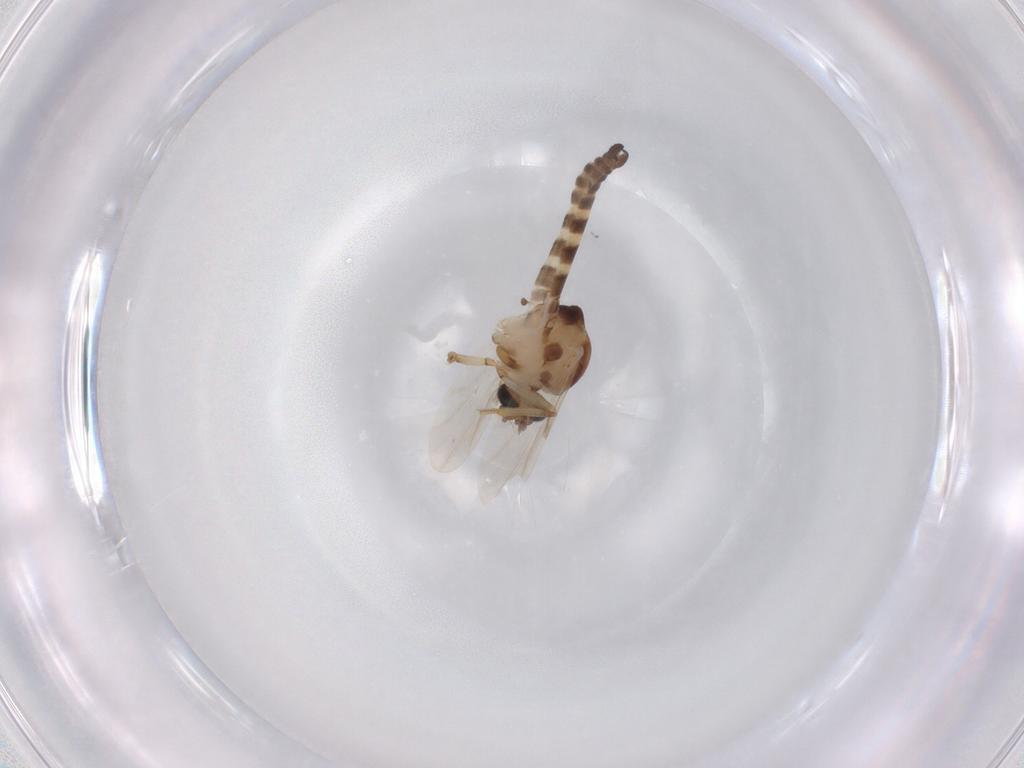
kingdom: Animalia
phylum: Arthropoda
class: Insecta
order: Diptera
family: Ceratopogonidae
